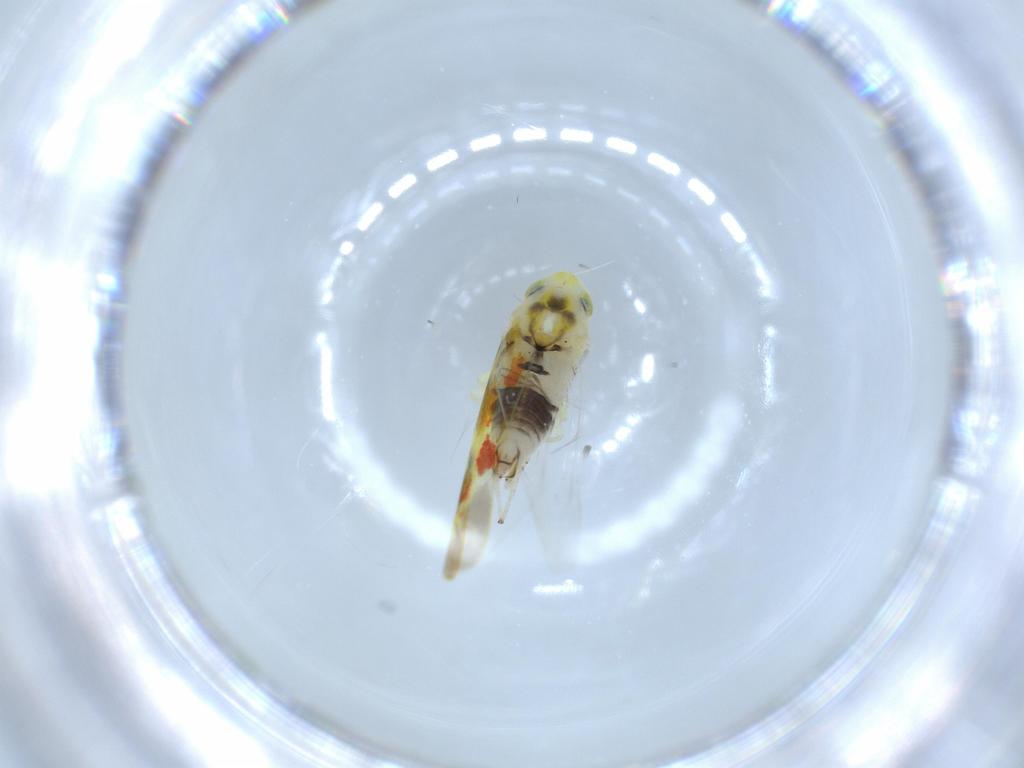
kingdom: Animalia
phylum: Arthropoda
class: Insecta
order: Hemiptera
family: Cicadellidae
